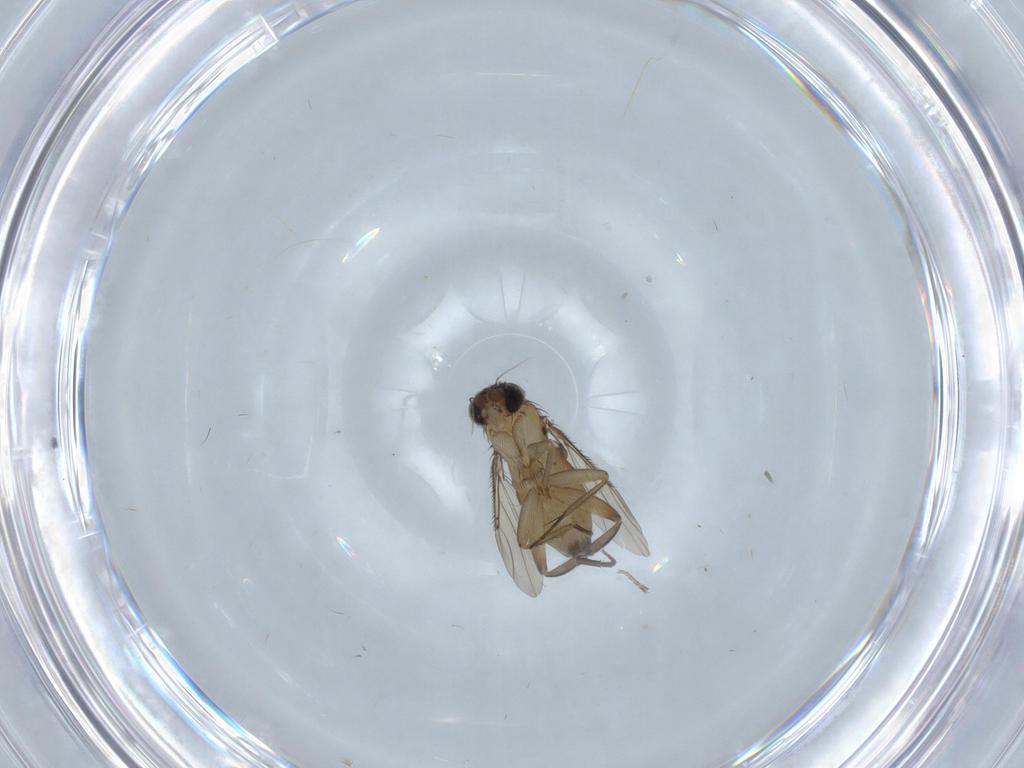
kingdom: Animalia
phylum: Arthropoda
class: Insecta
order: Diptera
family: Phoridae
